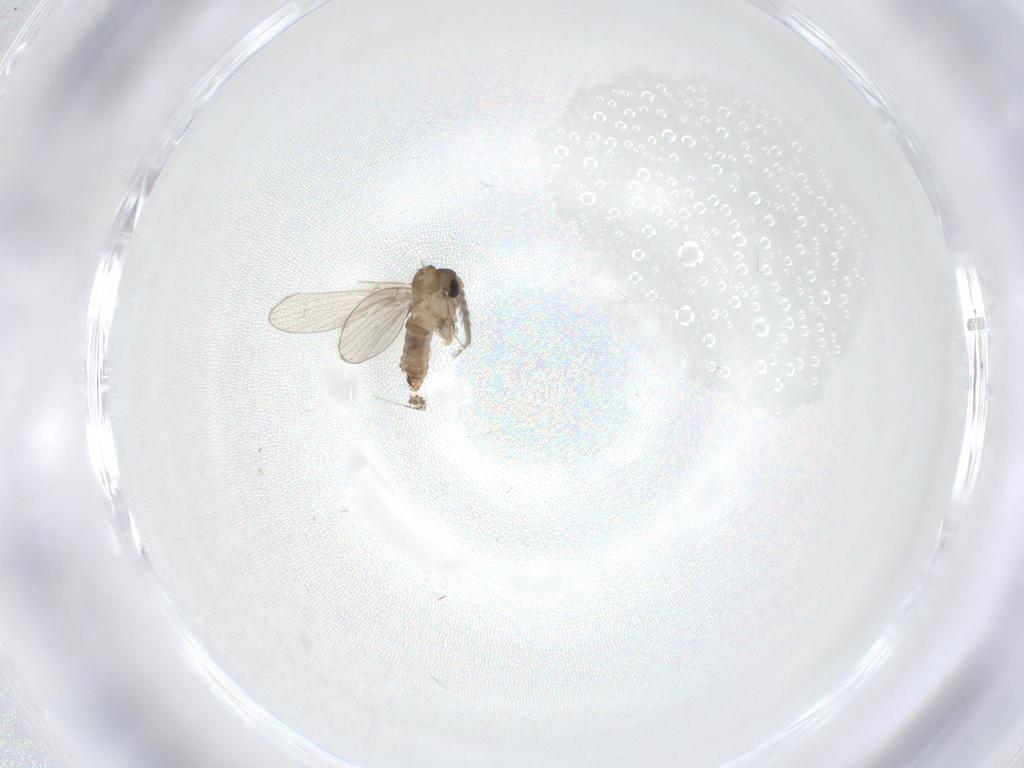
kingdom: Animalia
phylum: Arthropoda
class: Insecta
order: Diptera
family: Psychodidae
